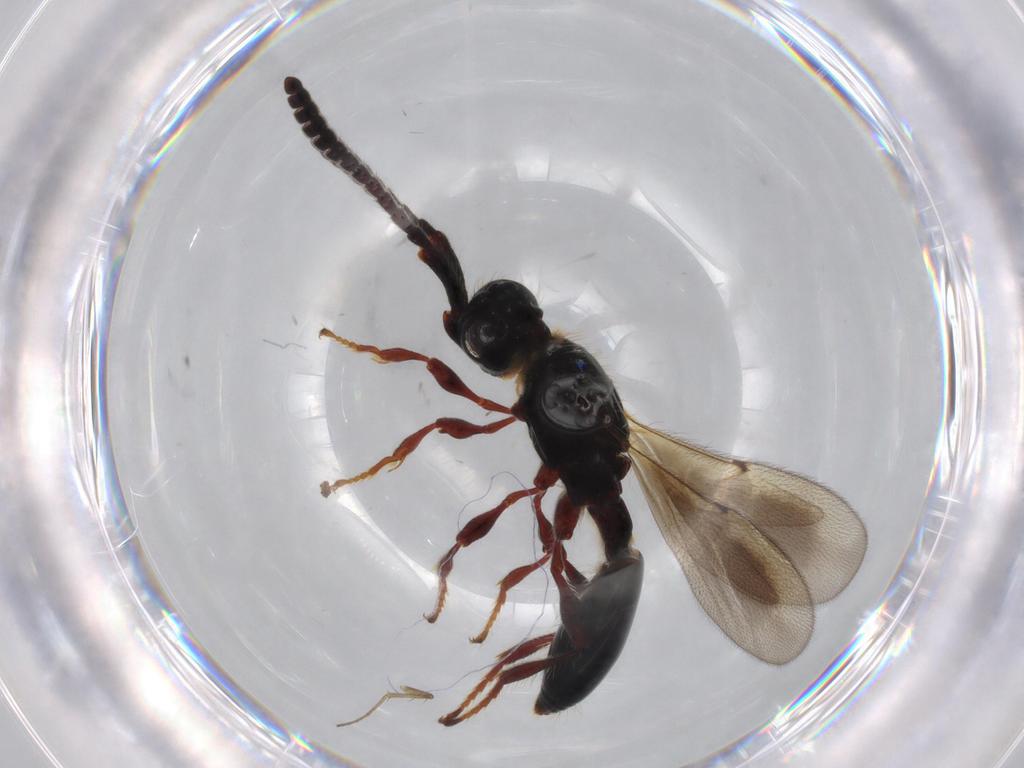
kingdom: Animalia
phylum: Arthropoda
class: Insecta
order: Hymenoptera
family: Diapriidae
